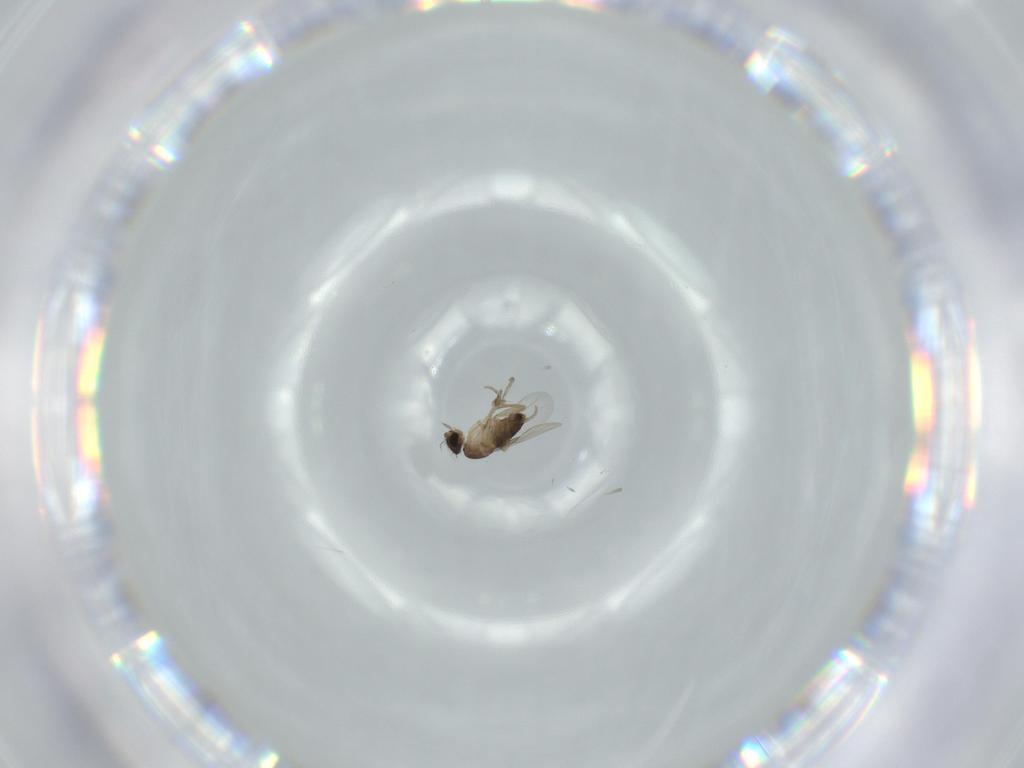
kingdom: Animalia
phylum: Arthropoda
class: Insecta
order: Diptera
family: Phoridae
